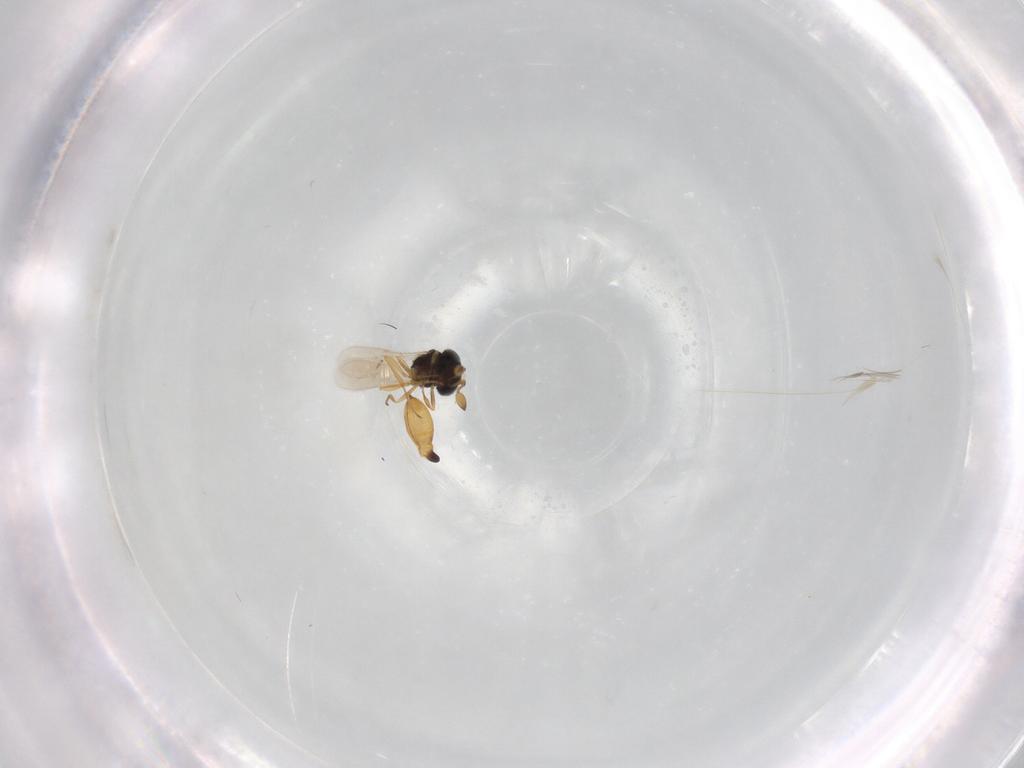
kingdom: Animalia
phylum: Arthropoda
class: Insecta
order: Hymenoptera
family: Scelionidae
